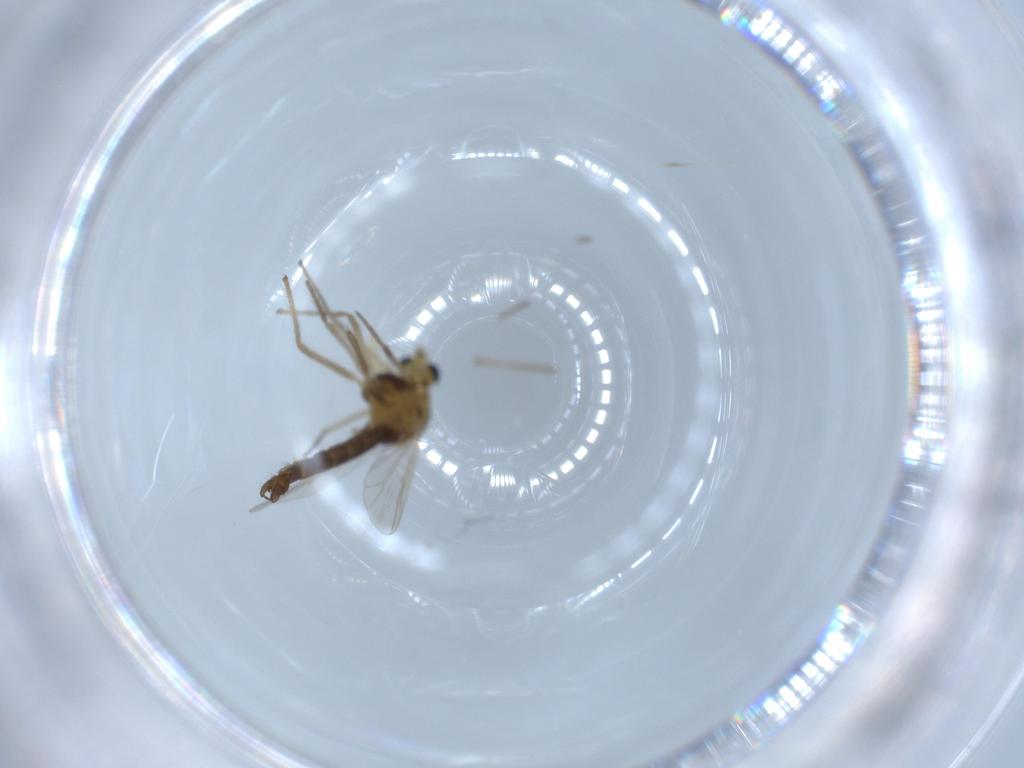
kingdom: Animalia
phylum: Arthropoda
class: Insecta
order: Diptera
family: Chironomidae
